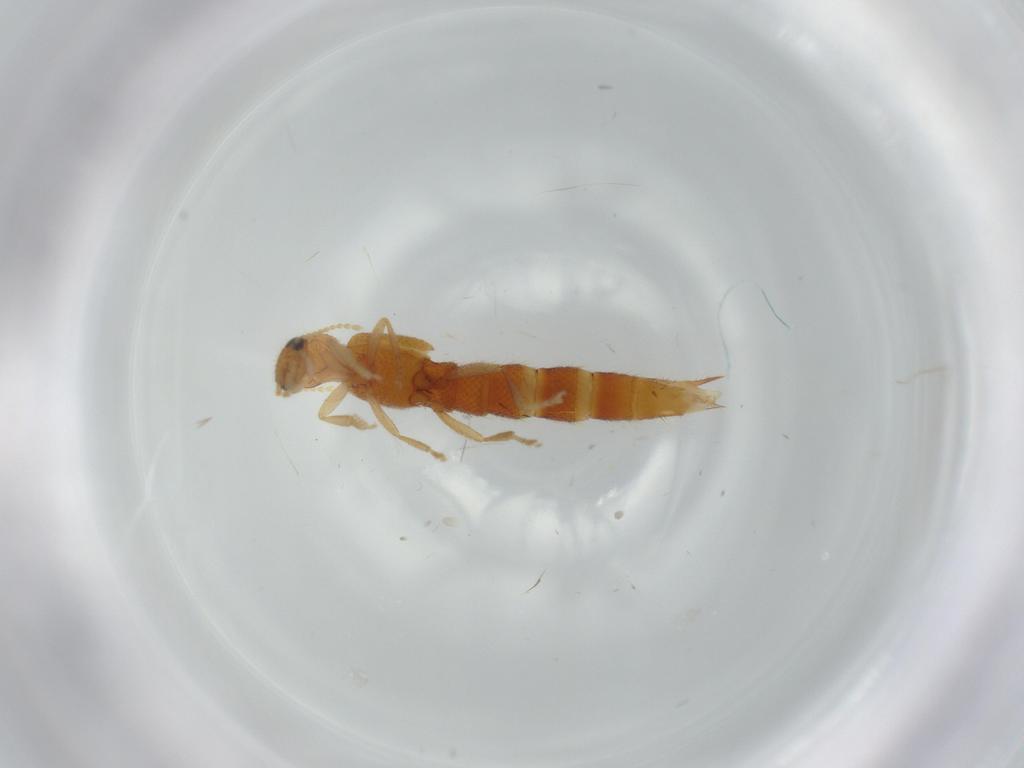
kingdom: Animalia
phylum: Arthropoda
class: Insecta
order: Coleoptera
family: Staphylinidae
